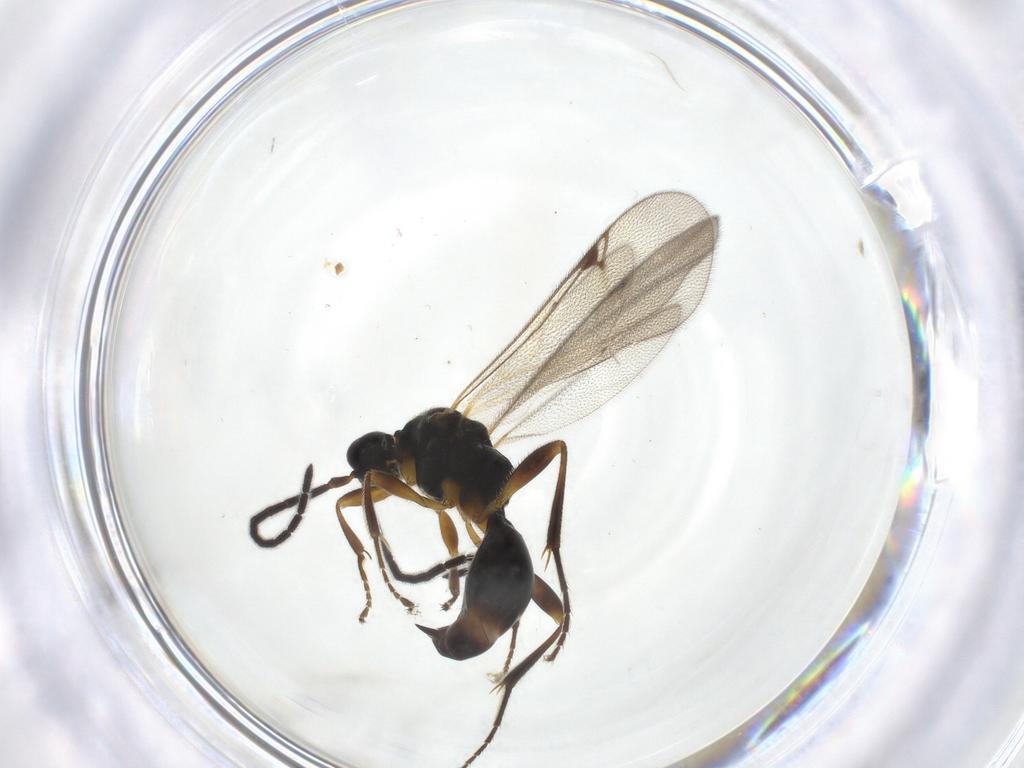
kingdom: Animalia
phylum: Arthropoda
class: Insecta
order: Hymenoptera
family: Proctotrupidae
